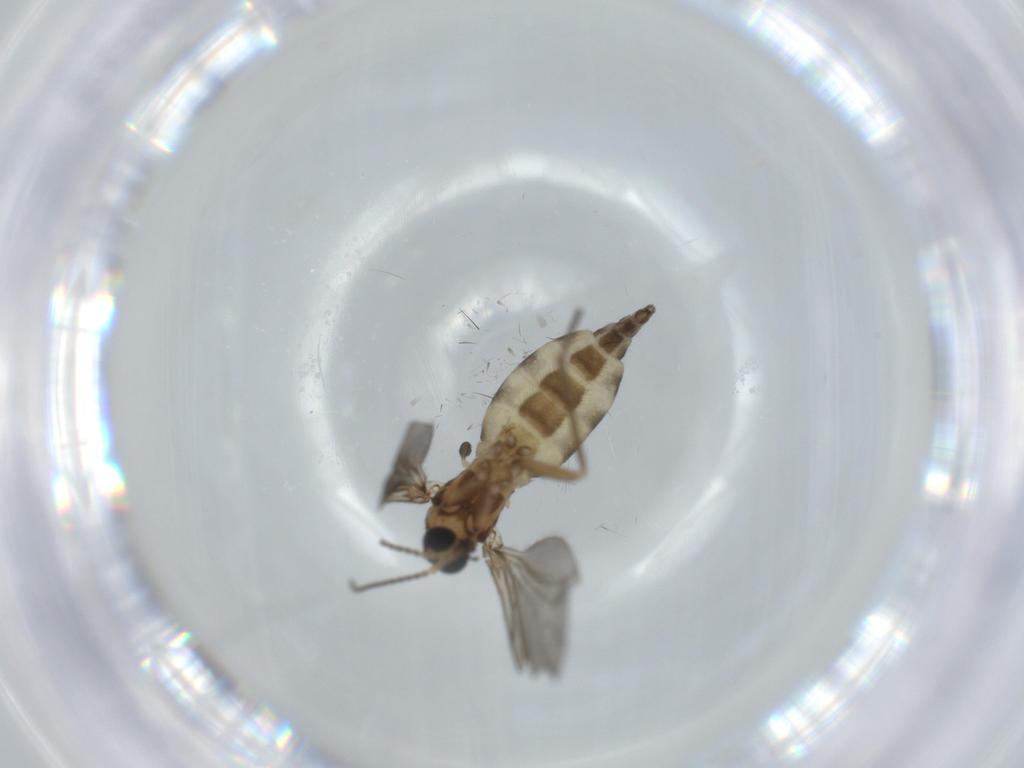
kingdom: Animalia
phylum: Arthropoda
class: Insecta
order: Diptera
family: Sciaridae
